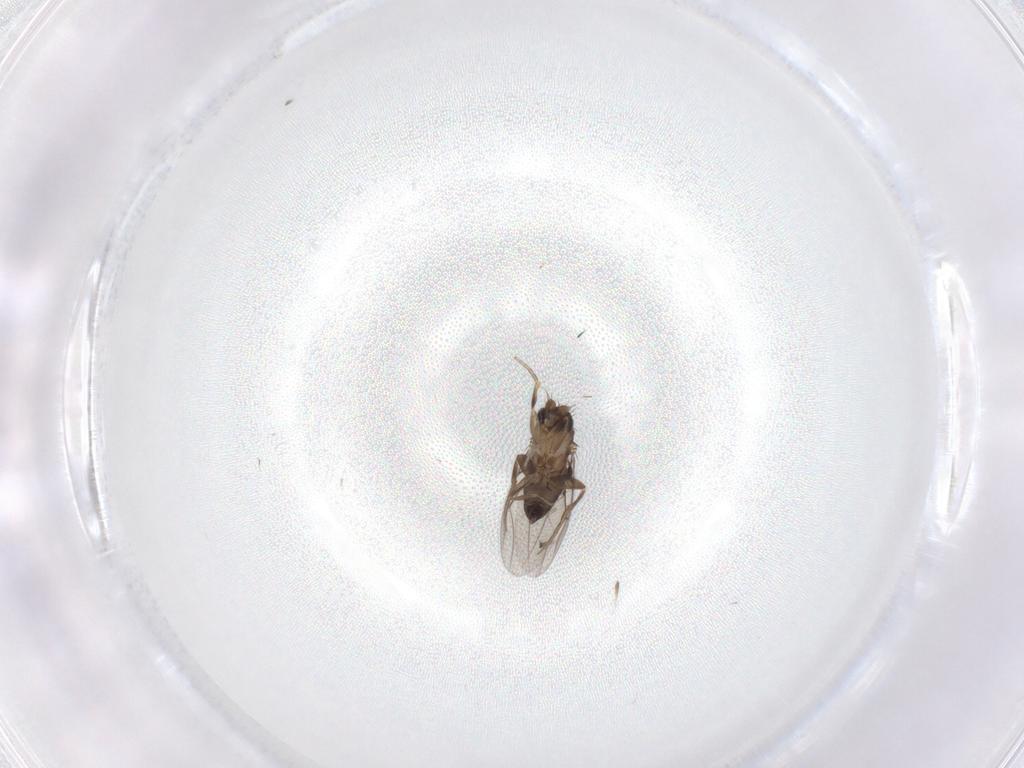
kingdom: Animalia
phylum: Arthropoda
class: Insecta
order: Diptera
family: Phoridae
